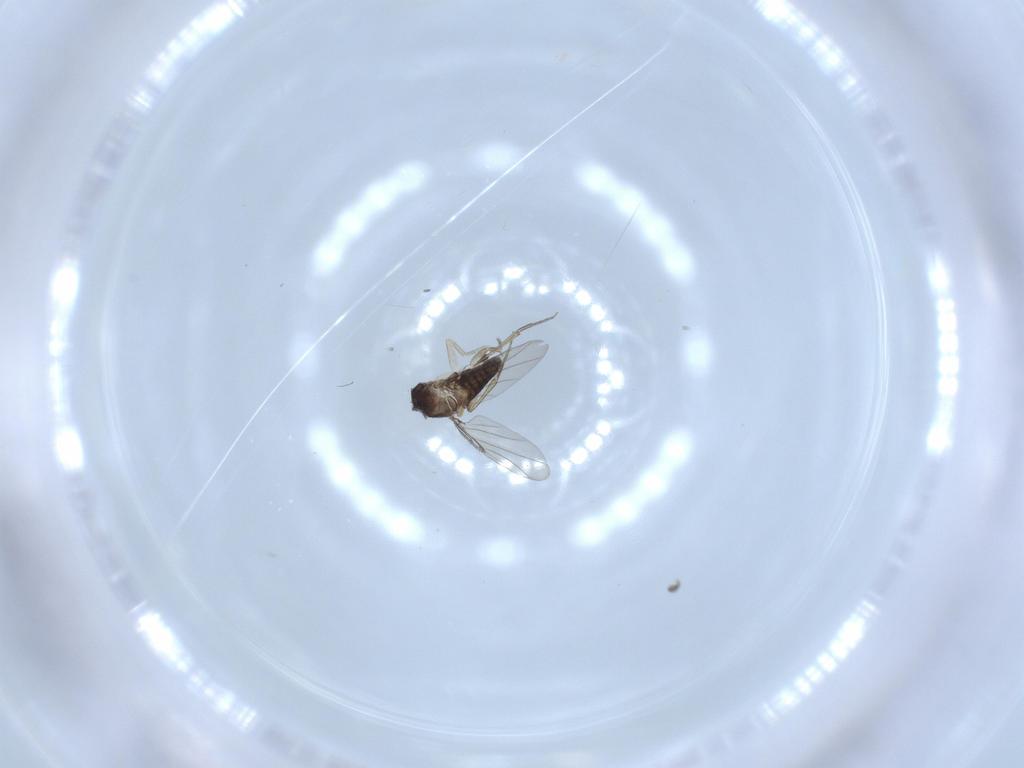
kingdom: Animalia
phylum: Arthropoda
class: Insecta
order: Diptera
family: Phoridae
